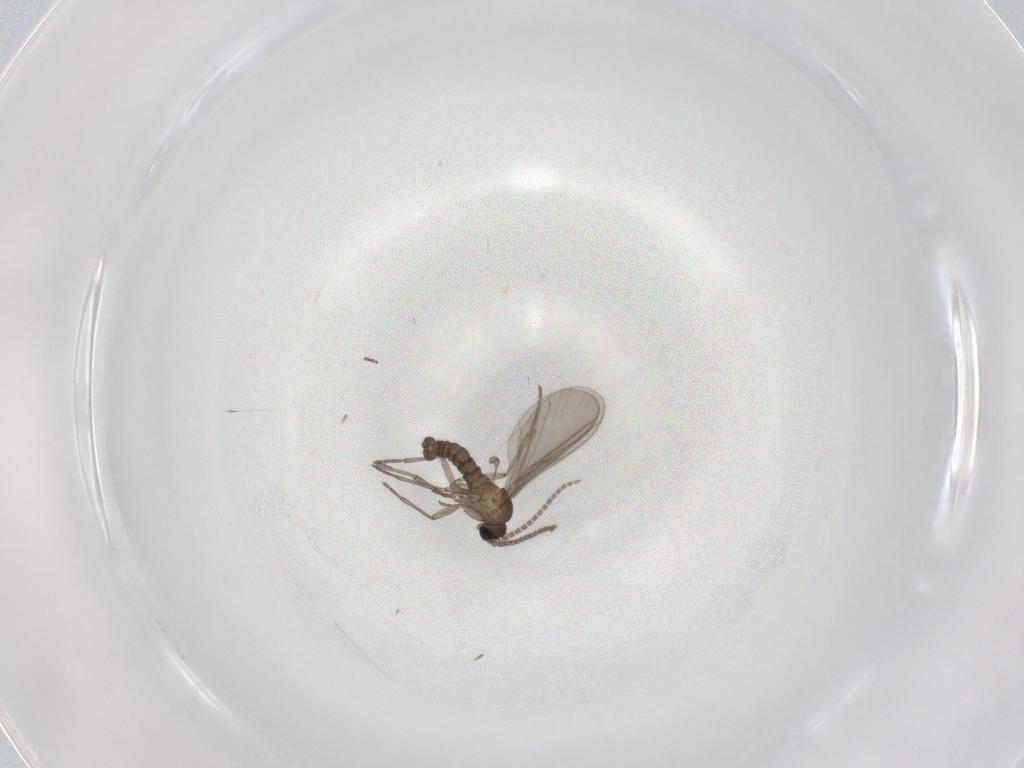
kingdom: Animalia
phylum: Arthropoda
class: Insecta
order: Diptera
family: Sciaridae
